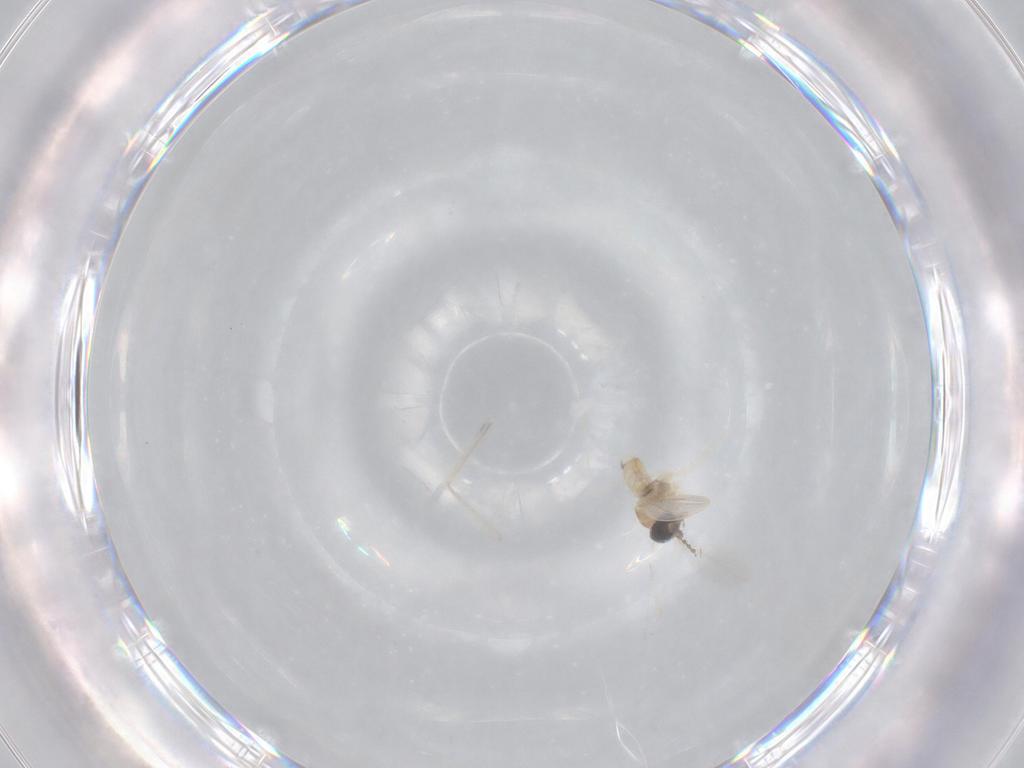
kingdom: Animalia
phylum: Arthropoda
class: Insecta
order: Diptera
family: Cecidomyiidae
